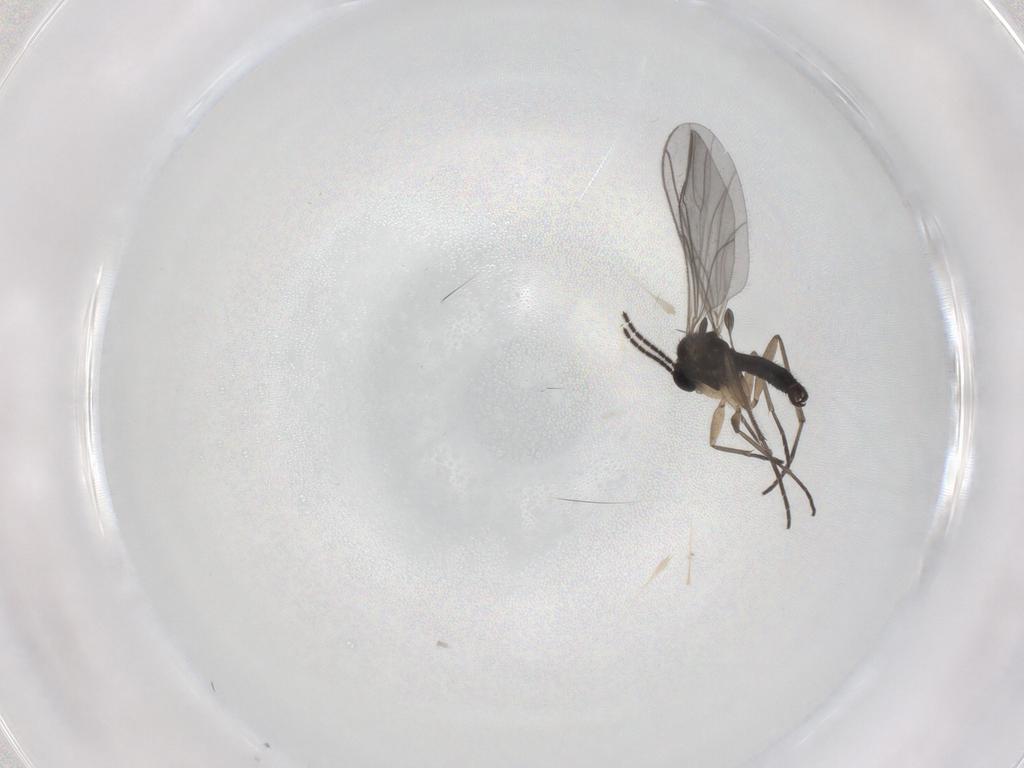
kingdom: Animalia
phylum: Arthropoda
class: Insecta
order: Diptera
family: Sciaridae
